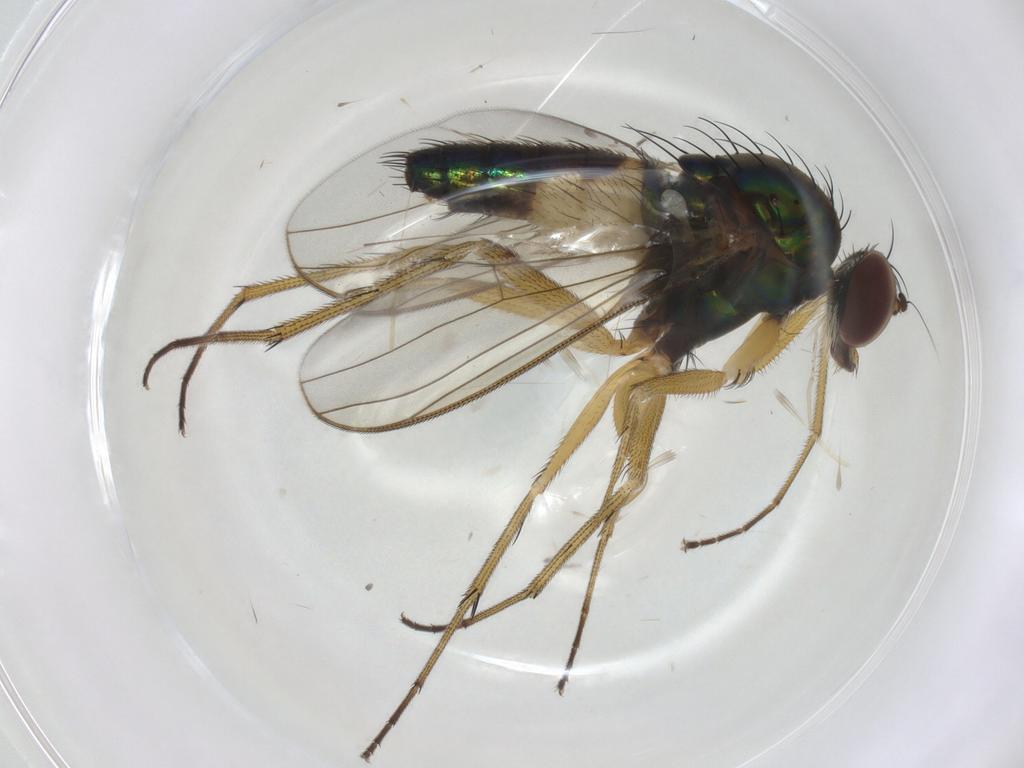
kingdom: Animalia
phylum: Arthropoda
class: Insecta
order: Diptera
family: Cecidomyiidae
